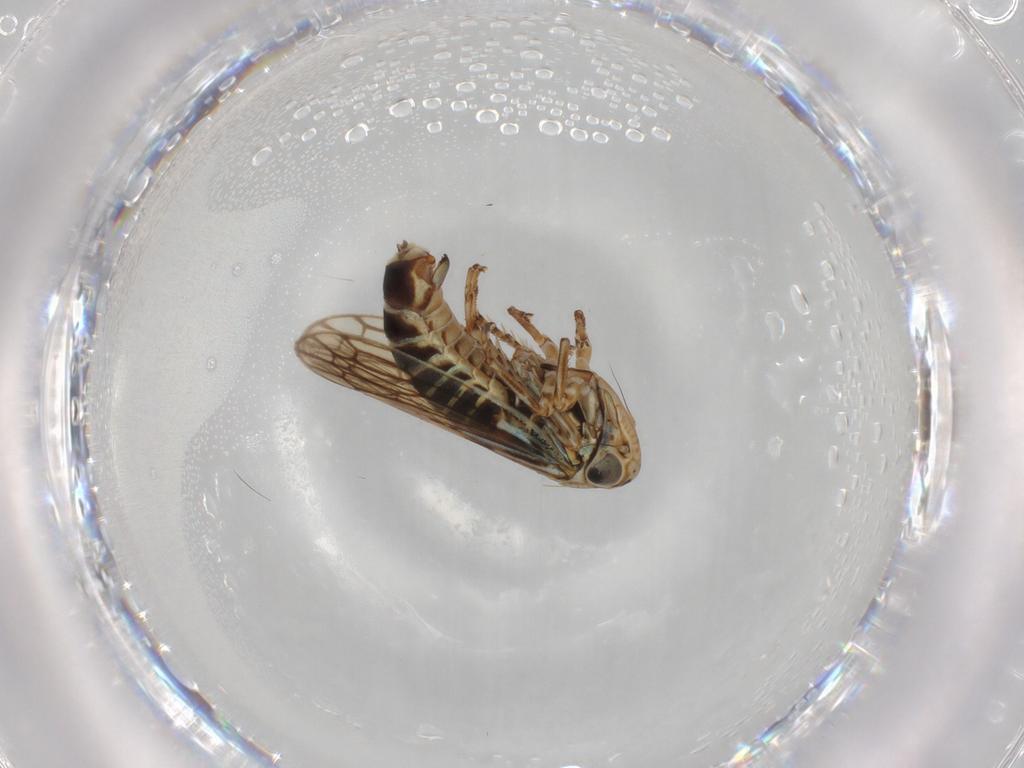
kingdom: Animalia
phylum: Arthropoda
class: Insecta
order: Hemiptera
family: Cicadellidae
